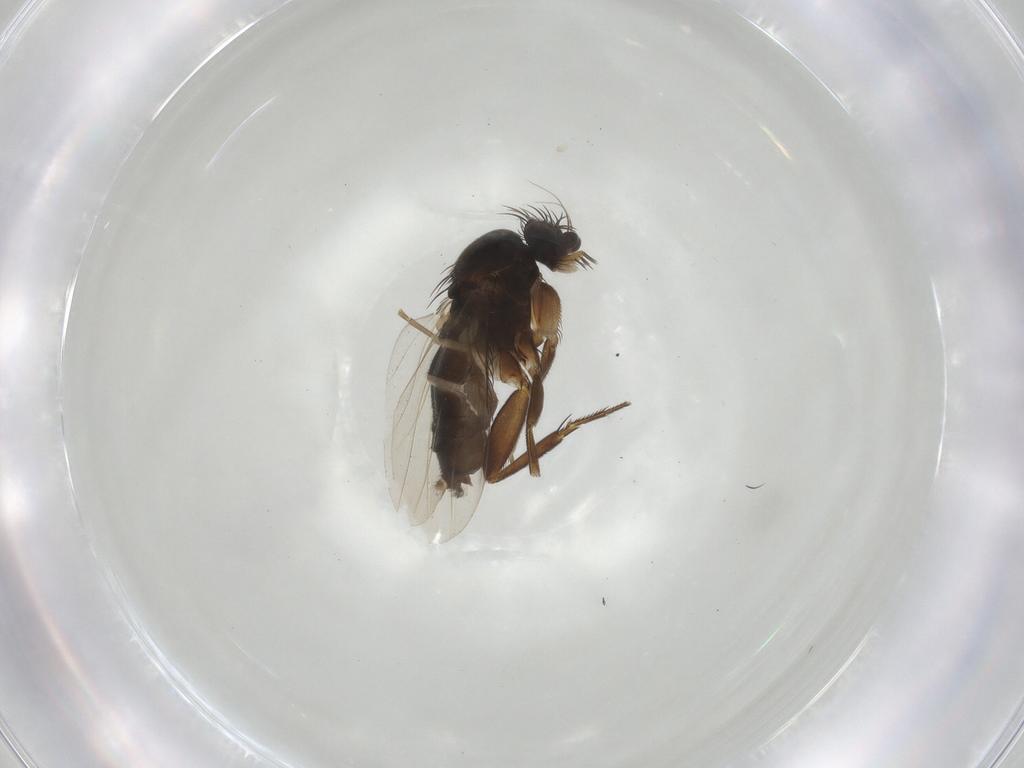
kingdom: Animalia
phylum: Arthropoda
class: Insecta
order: Diptera
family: Phoridae
